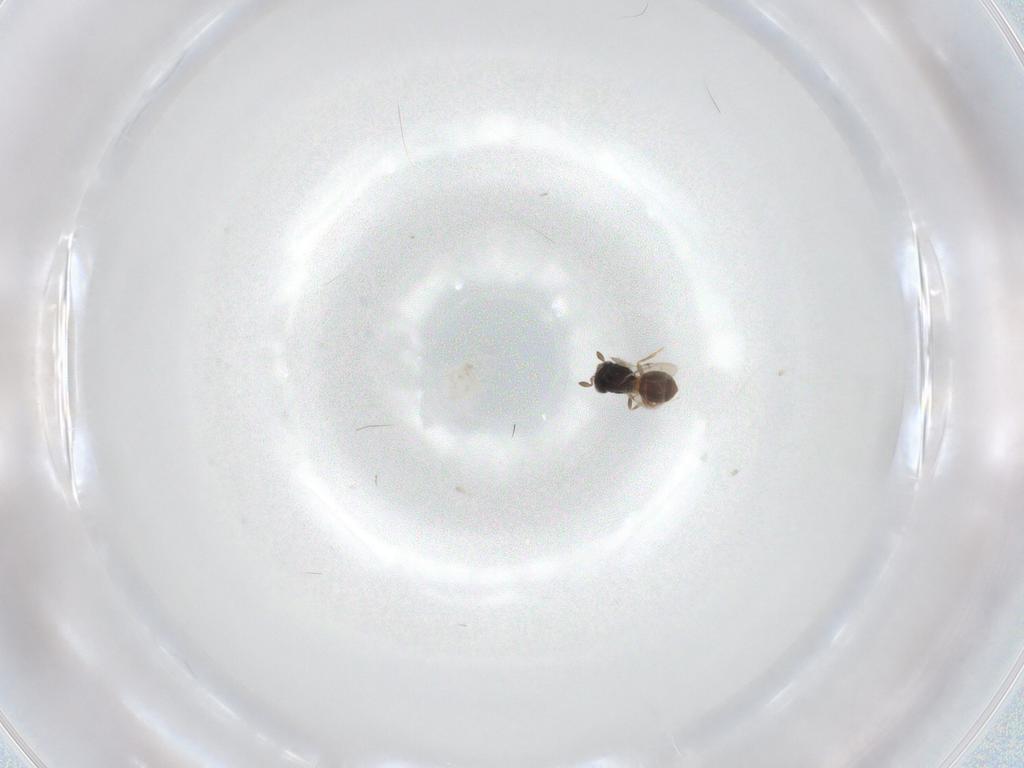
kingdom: Animalia
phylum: Arthropoda
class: Insecta
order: Hymenoptera
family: Scelionidae
